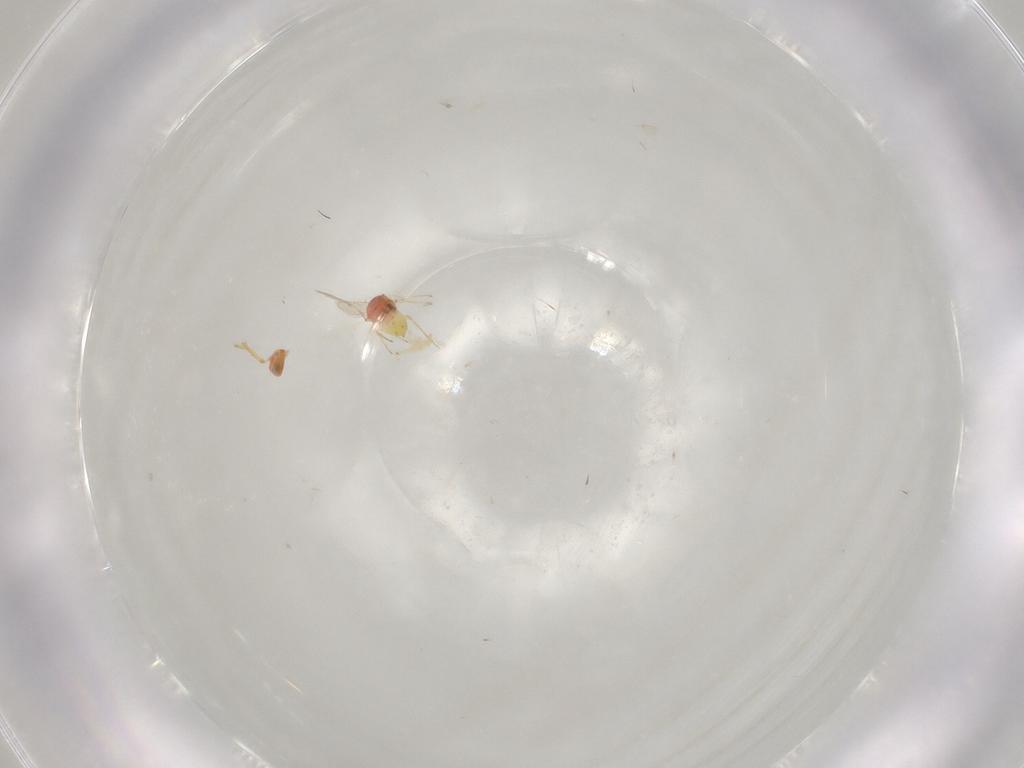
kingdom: Animalia
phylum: Arthropoda
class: Insecta
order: Hymenoptera
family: Aphelinidae
